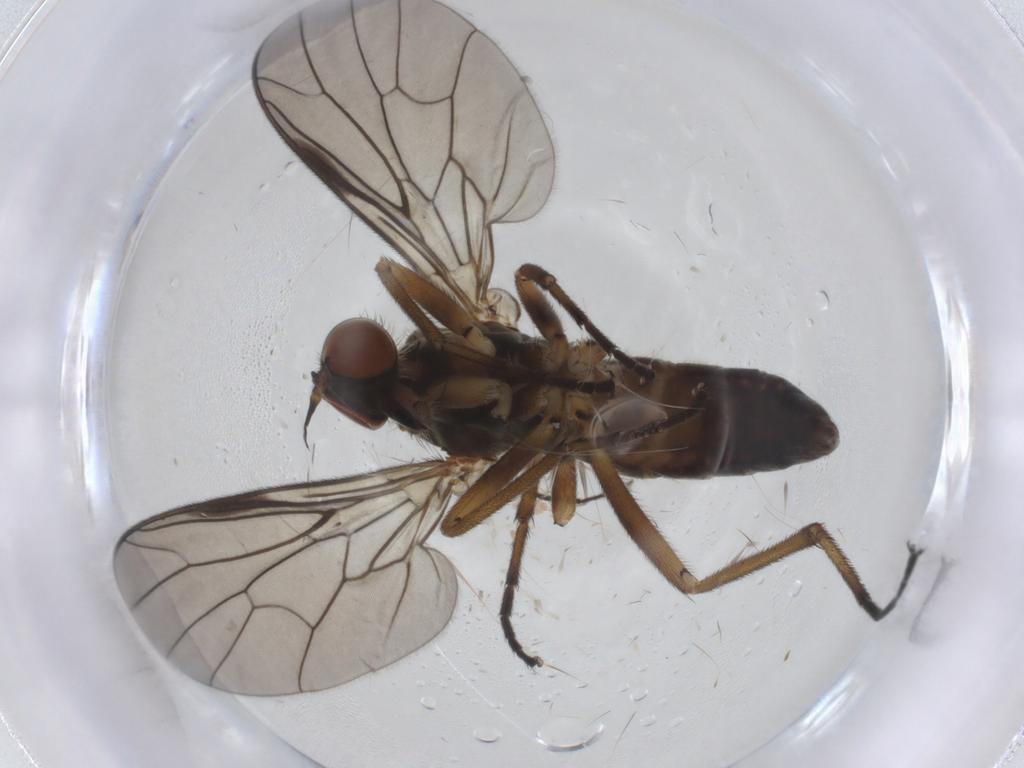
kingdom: Animalia
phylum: Arthropoda
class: Insecta
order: Diptera
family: Empididae
